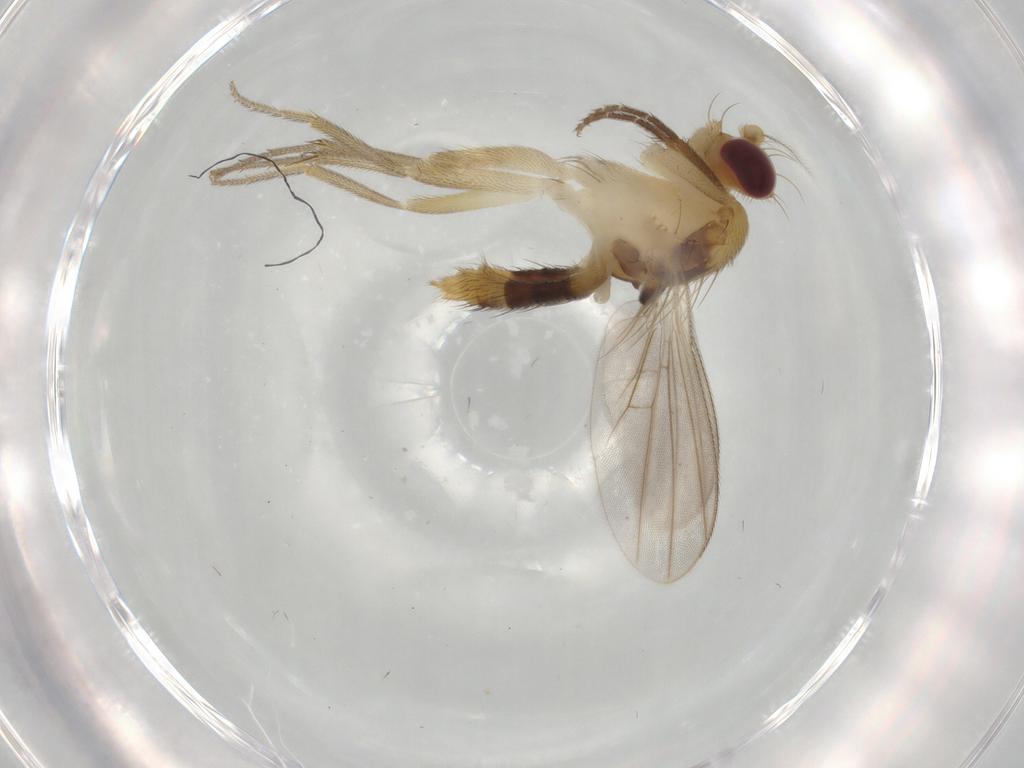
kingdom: Animalia
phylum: Arthropoda
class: Insecta
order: Diptera
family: Clusiidae
